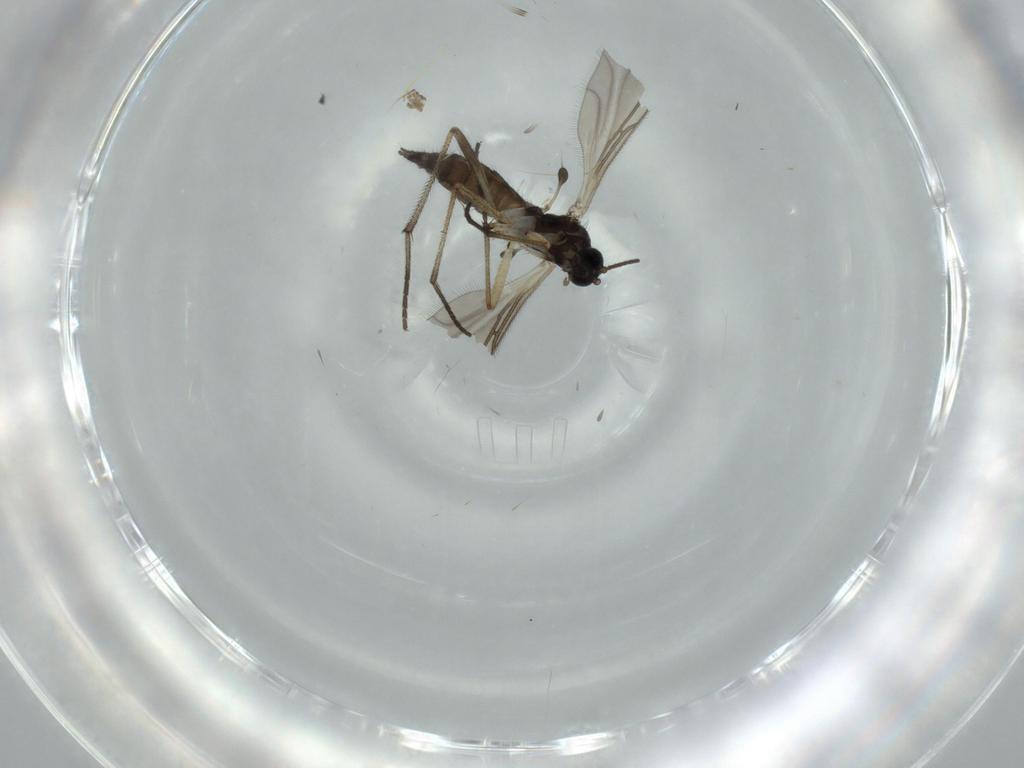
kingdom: Animalia
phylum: Arthropoda
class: Insecta
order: Diptera
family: Sciaridae
